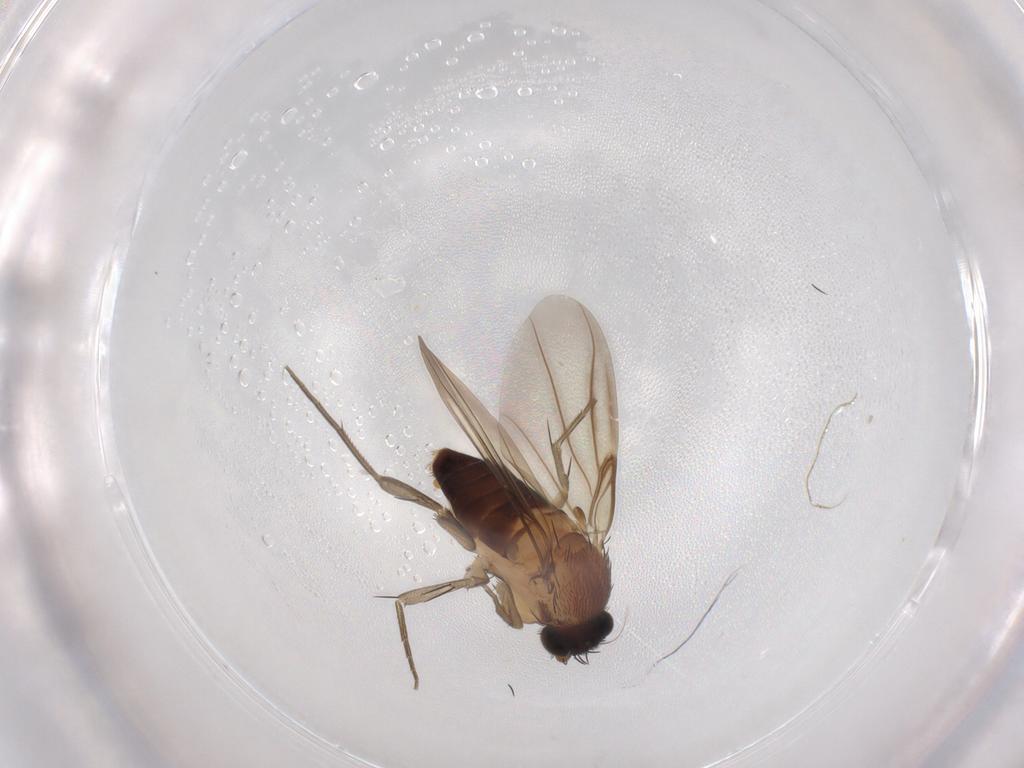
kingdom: Animalia
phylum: Arthropoda
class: Insecta
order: Diptera
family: Phoridae
